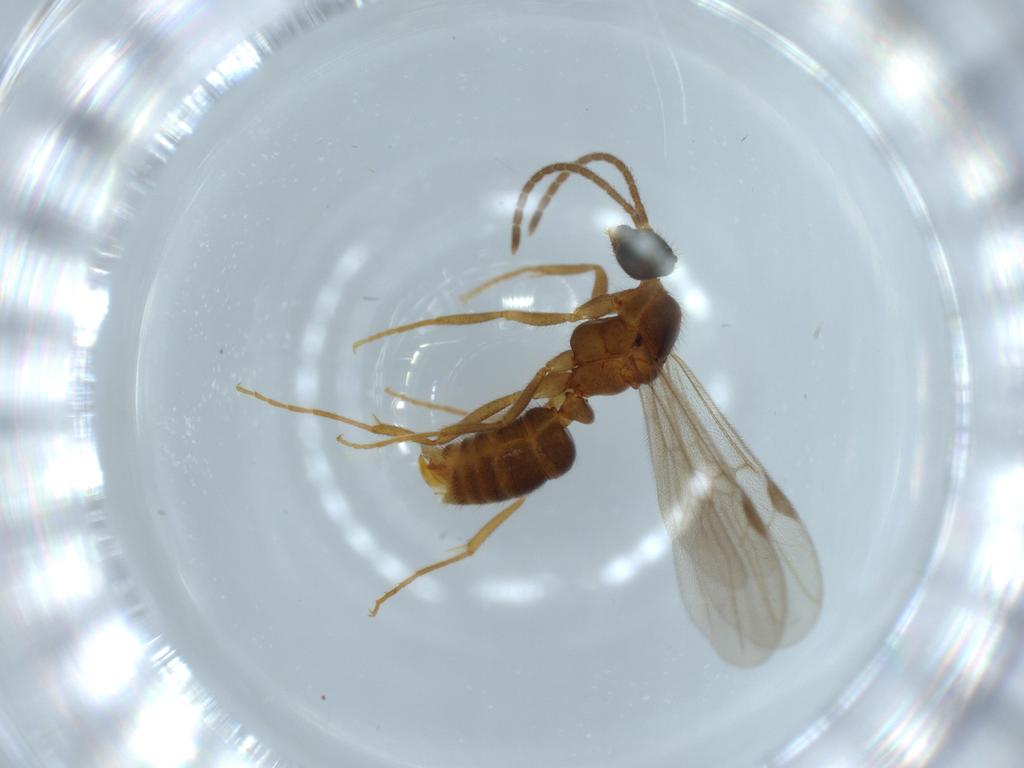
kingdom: Animalia
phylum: Arthropoda
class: Insecta
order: Hymenoptera
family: Formicidae
